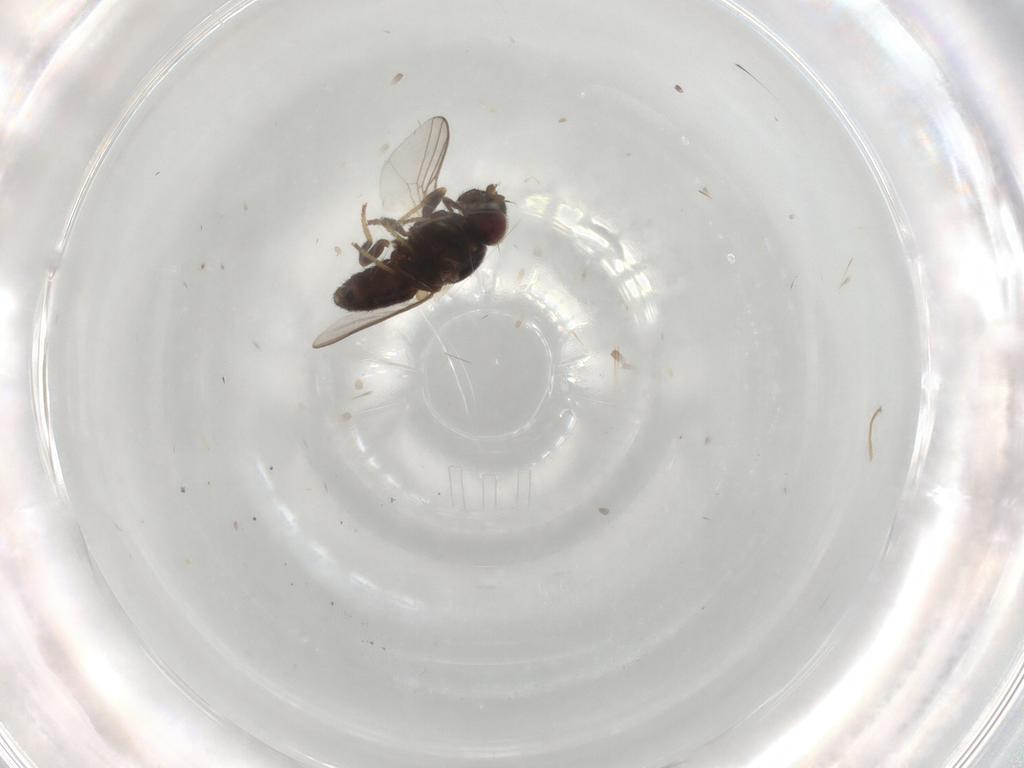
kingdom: Animalia
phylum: Arthropoda
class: Insecta
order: Diptera
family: Chloropidae
